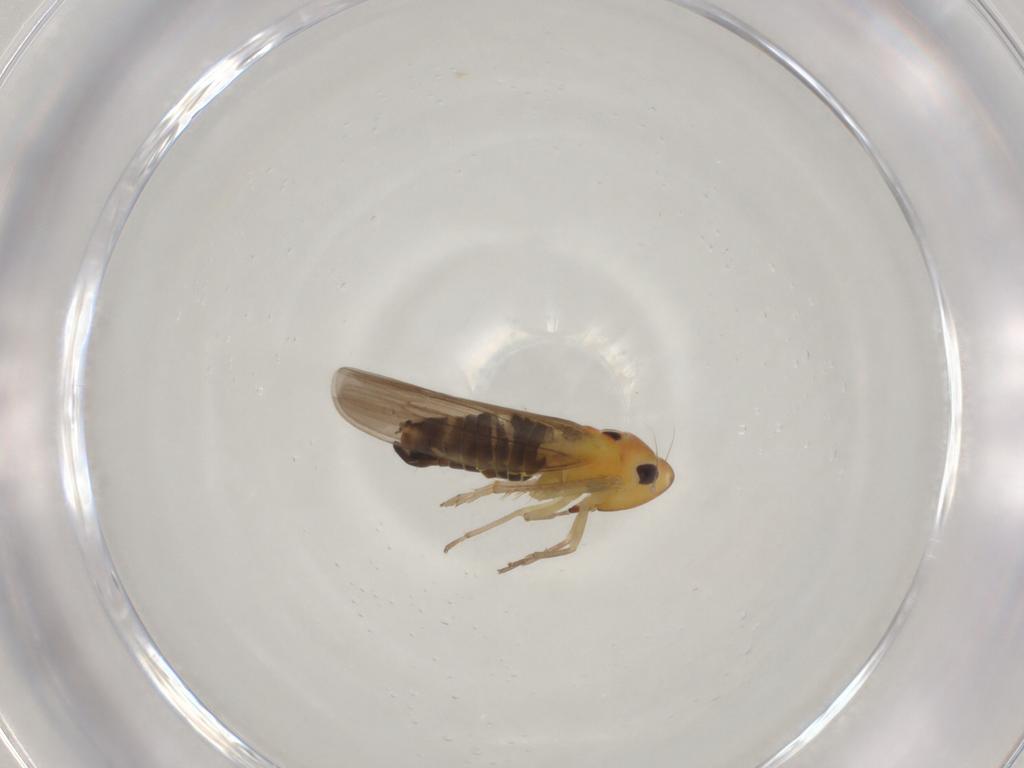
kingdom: Animalia
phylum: Arthropoda
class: Insecta
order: Hemiptera
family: Cicadellidae
